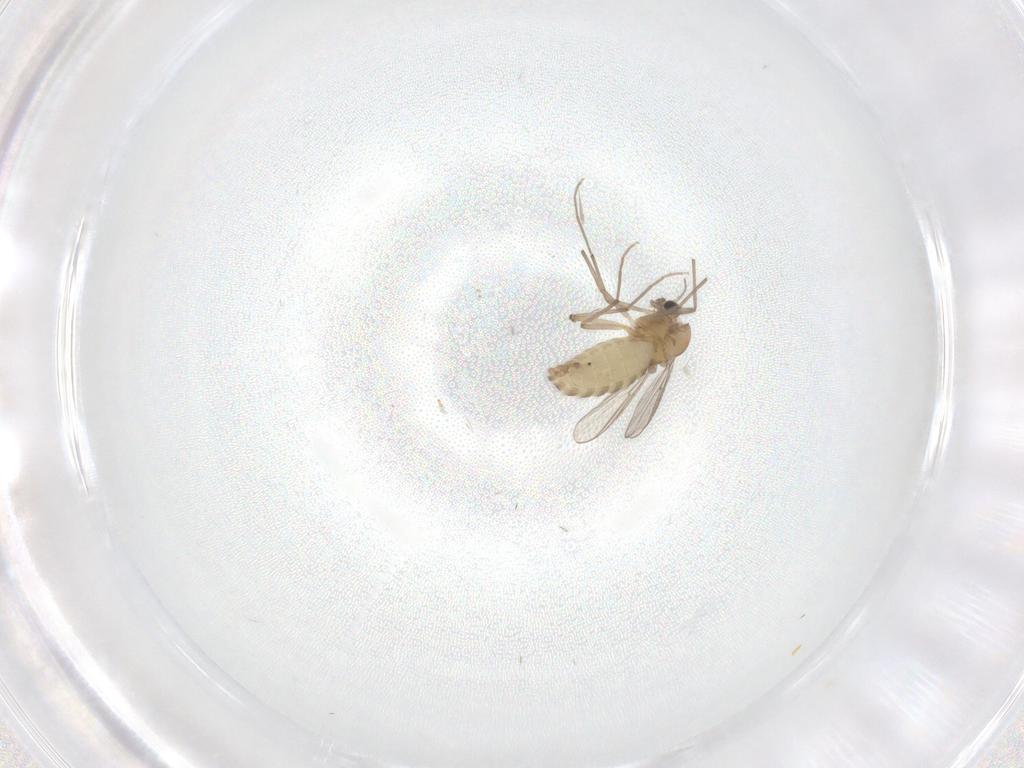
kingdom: Animalia
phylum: Arthropoda
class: Insecta
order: Diptera
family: Chironomidae
